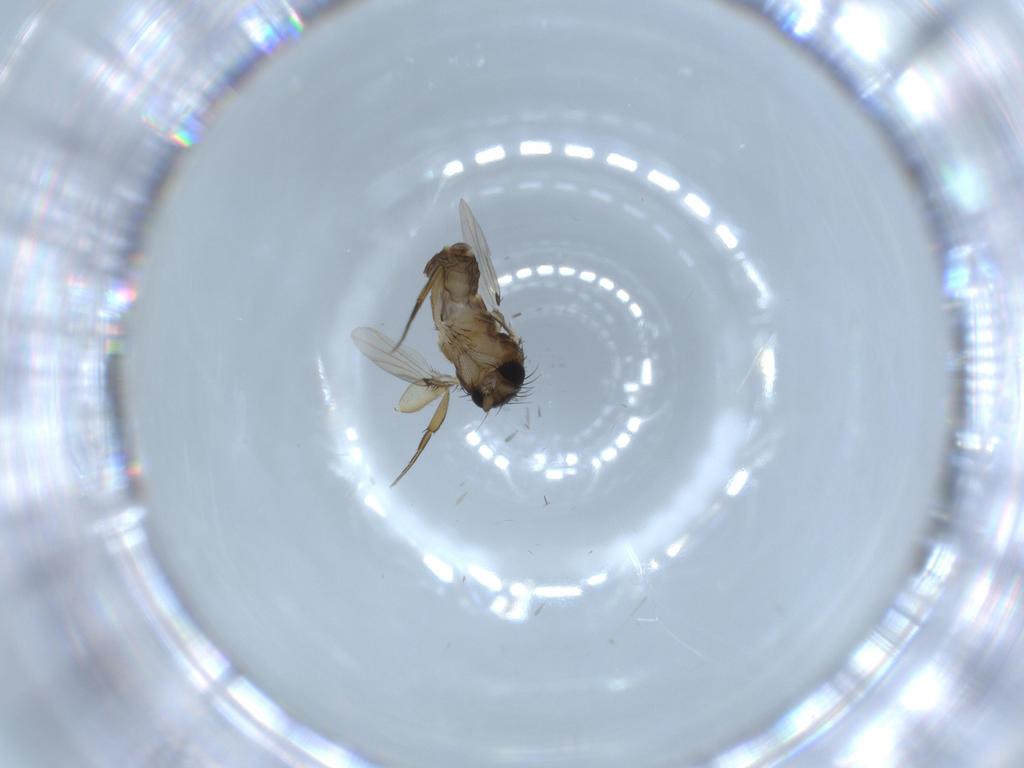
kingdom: Animalia
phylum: Arthropoda
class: Insecta
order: Diptera
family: Phoridae
